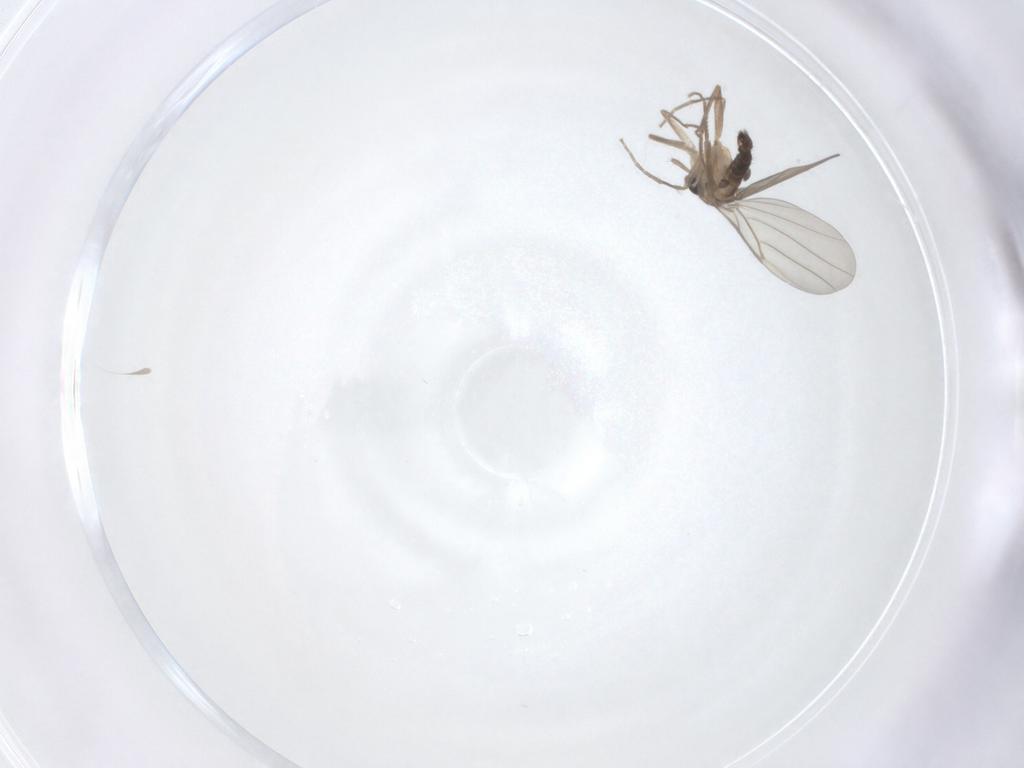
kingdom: Animalia
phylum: Arthropoda
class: Insecta
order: Diptera
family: Phoridae
